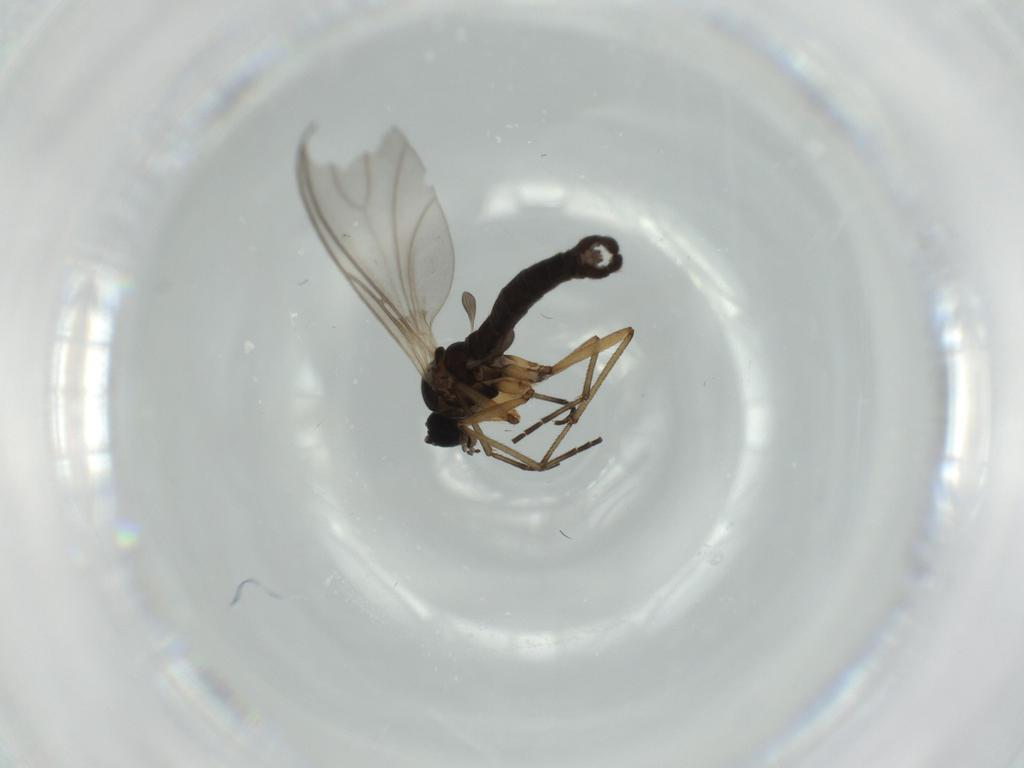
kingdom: Animalia
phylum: Arthropoda
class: Insecta
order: Diptera
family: Sciaridae
